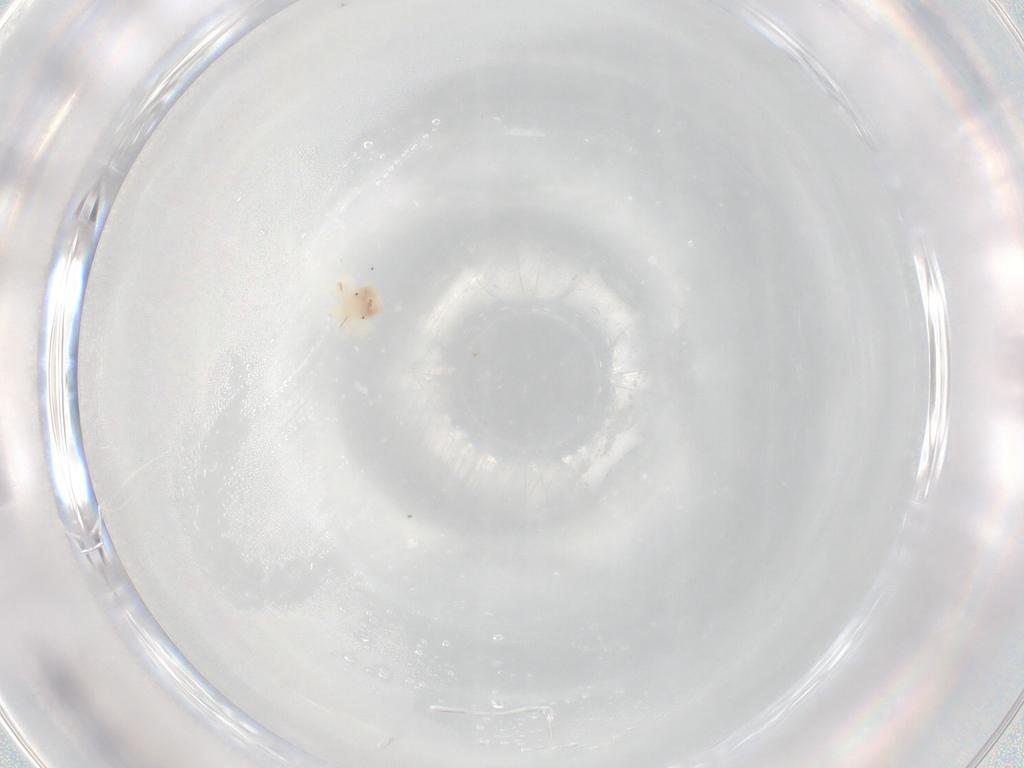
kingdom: Animalia
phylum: Arthropoda
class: Arachnida
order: Trombidiformes
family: Anystidae
